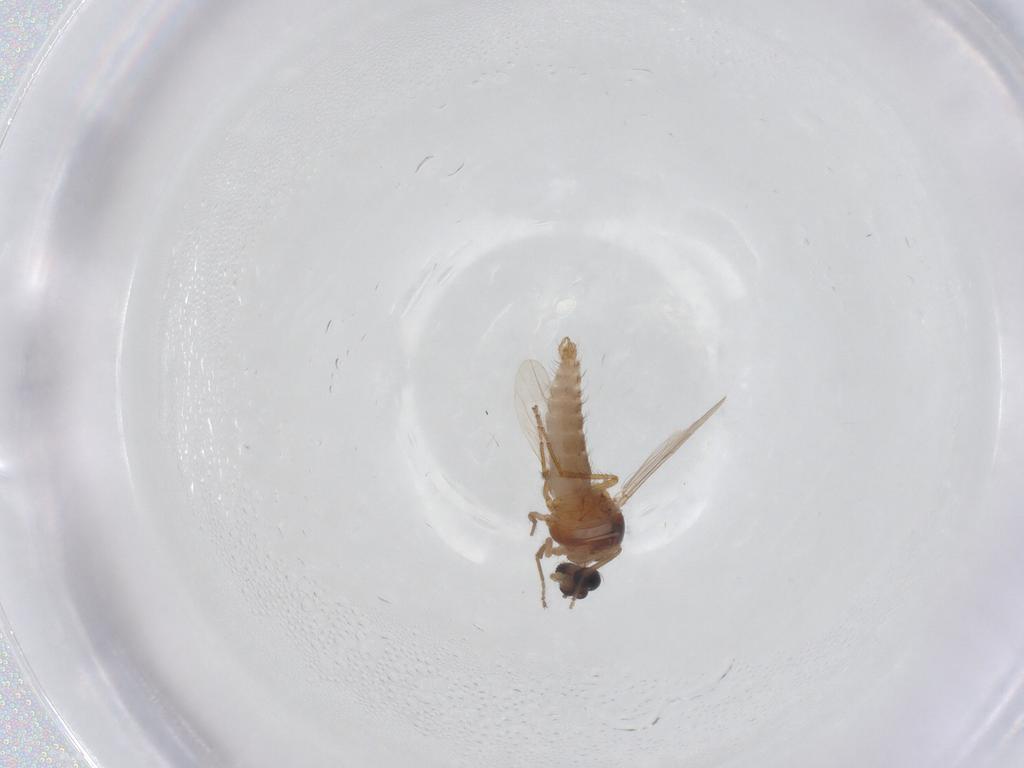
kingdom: Animalia
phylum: Arthropoda
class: Insecta
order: Diptera
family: Ceratopogonidae
